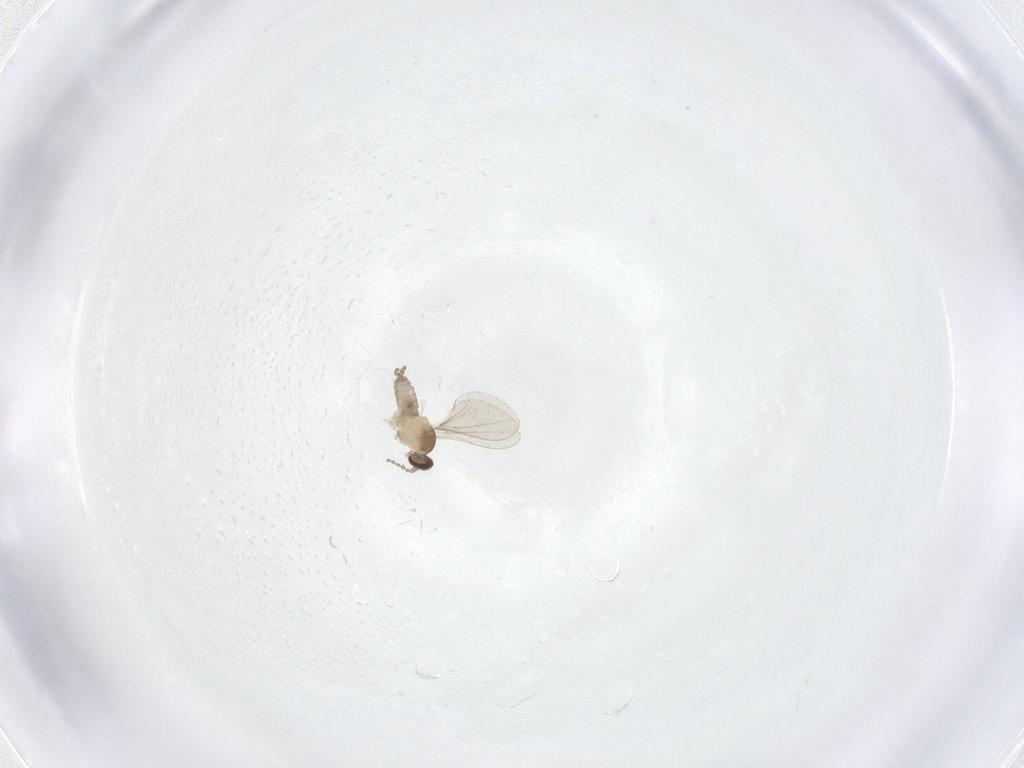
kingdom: Animalia
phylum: Arthropoda
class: Insecta
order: Diptera
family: Cecidomyiidae
